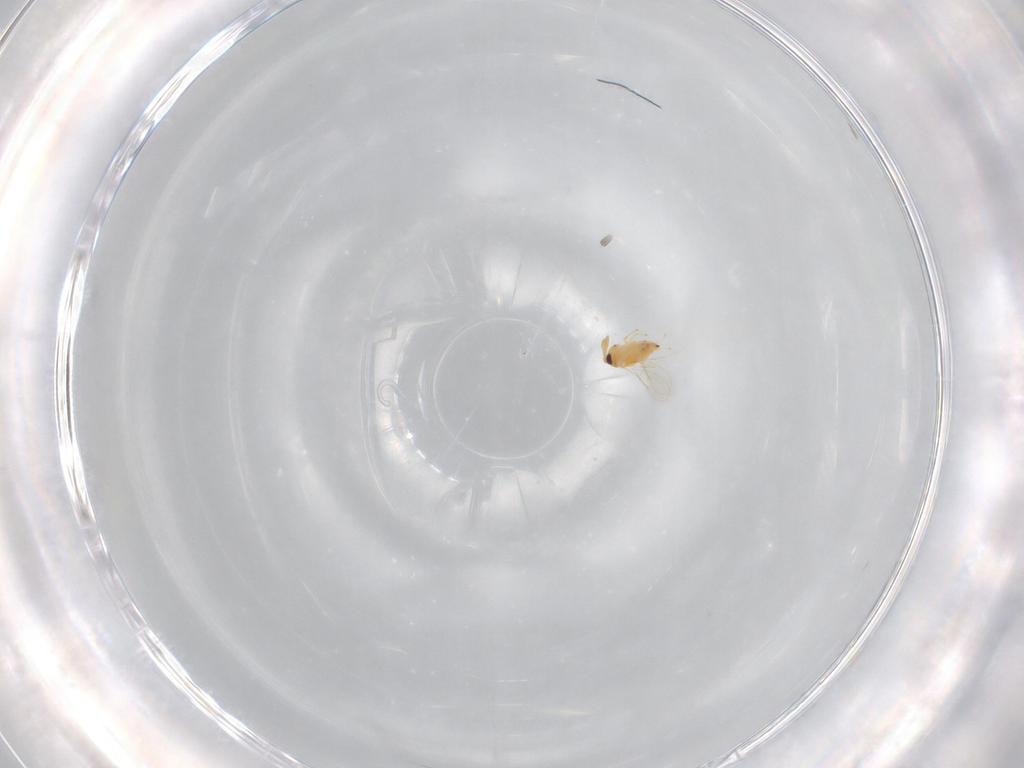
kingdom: Animalia
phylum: Arthropoda
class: Insecta
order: Hymenoptera
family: Aphelinidae
